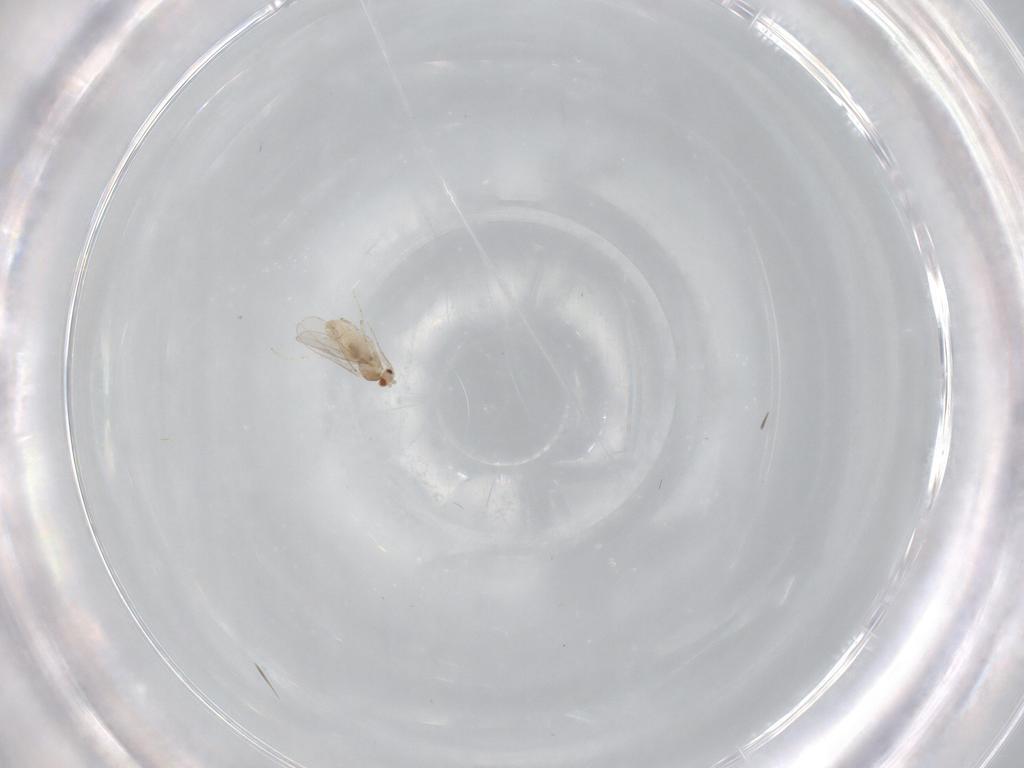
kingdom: Animalia
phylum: Arthropoda
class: Insecta
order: Diptera
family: Cecidomyiidae
